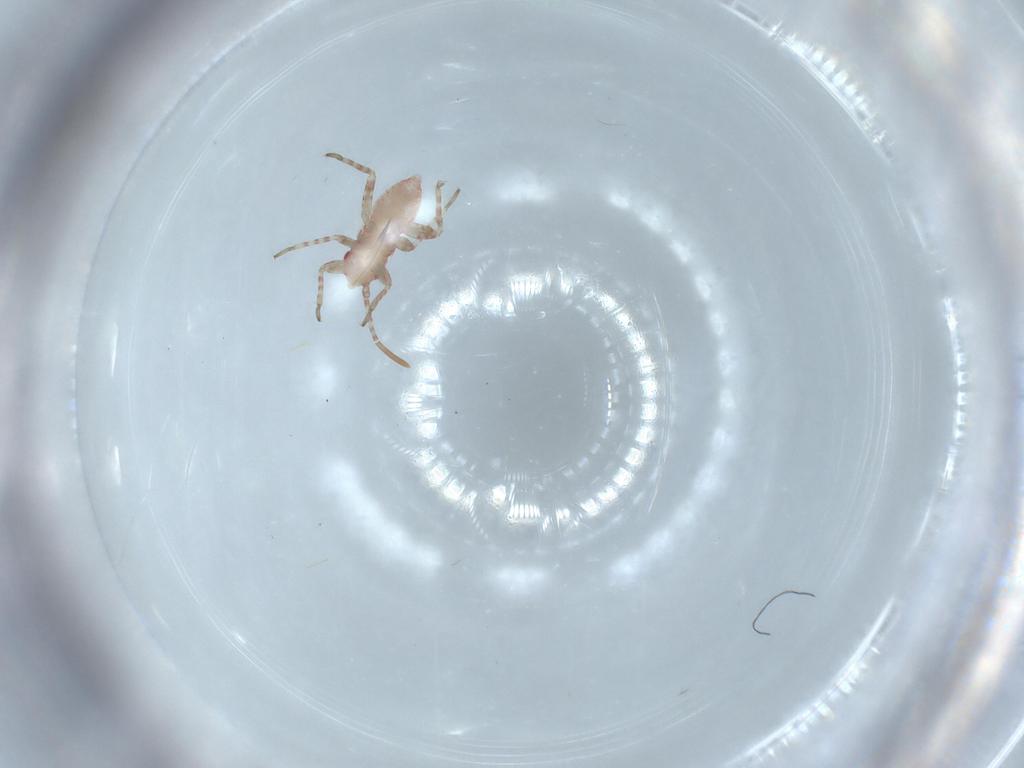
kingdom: Animalia
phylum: Arthropoda
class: Insecta
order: Hemiptera
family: Miridae
